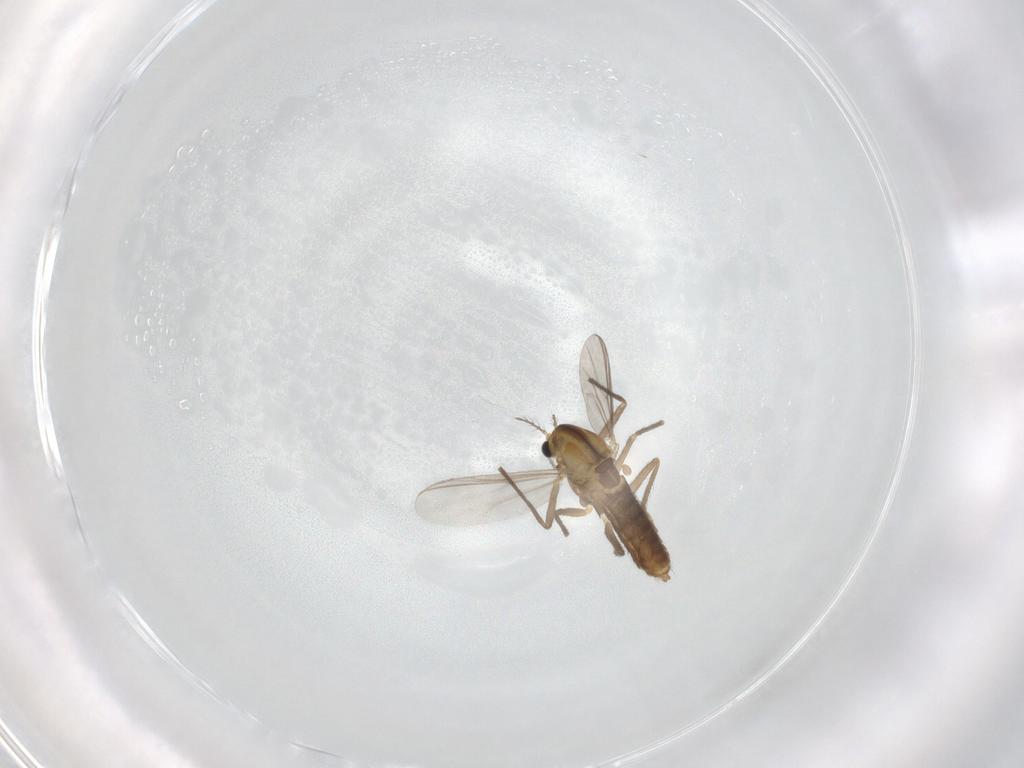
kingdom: Animalia
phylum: Arthropoda
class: Insecta
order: Diptera
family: Chironomidae
